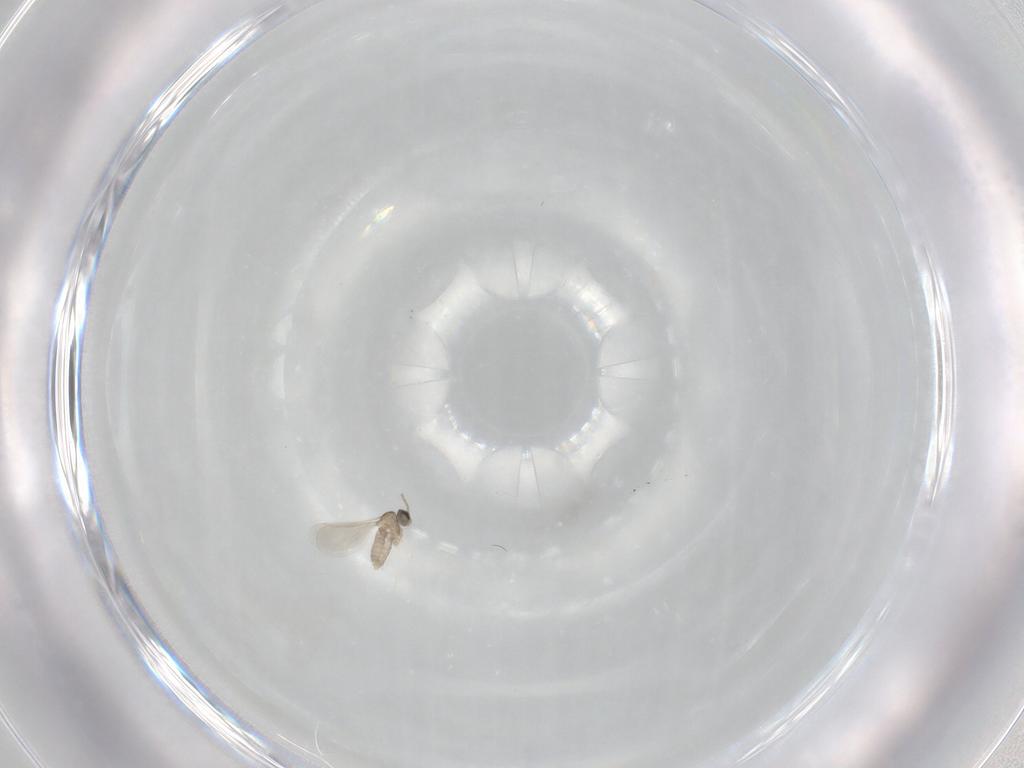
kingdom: Animalia
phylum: Arthropoda
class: Insecta
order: Diptera
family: Cecidomyiidae
